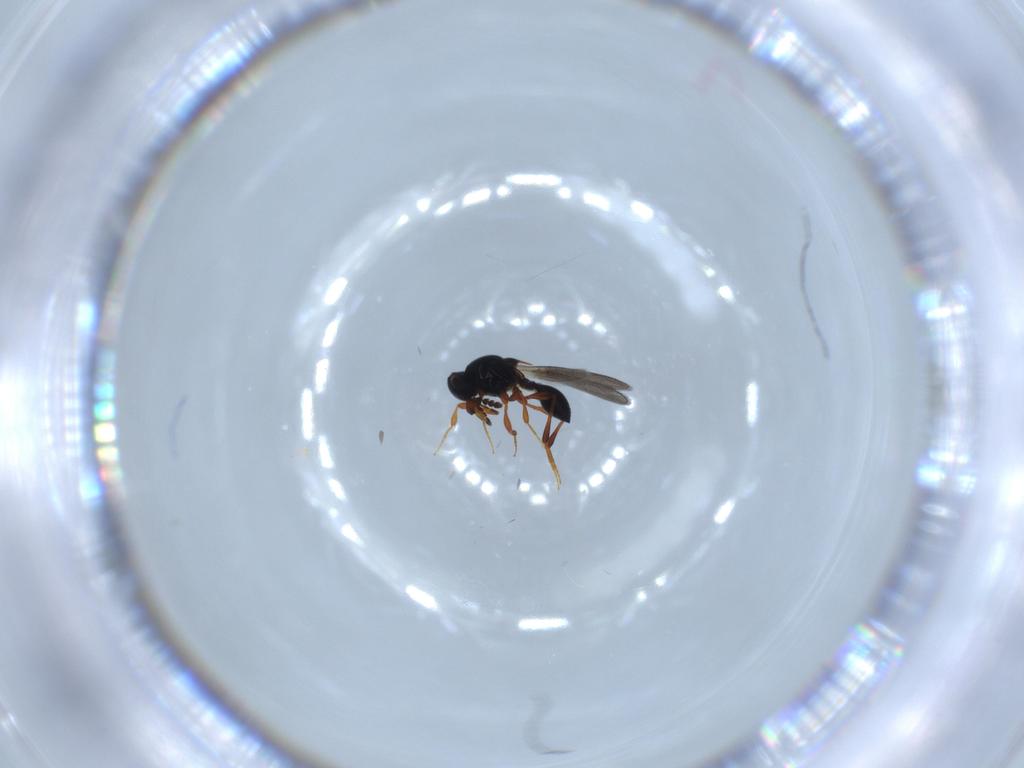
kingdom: Animalia
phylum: Arthropoda
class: Insecta
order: Hymenoptera
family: Platygastridae
